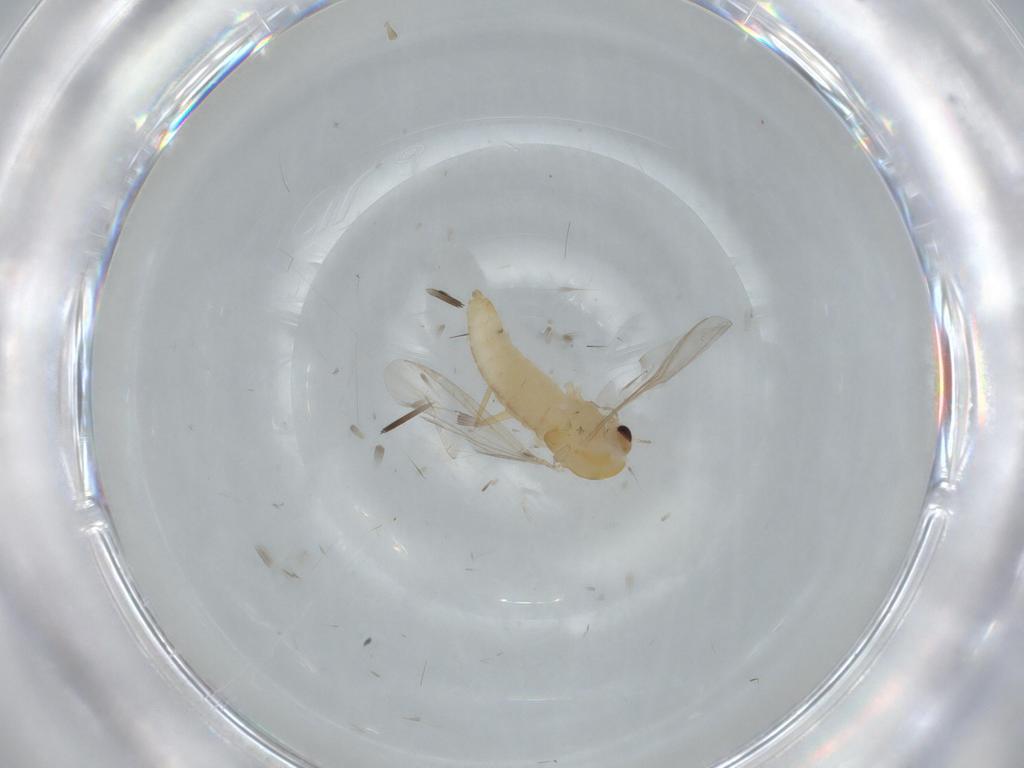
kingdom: Animalia
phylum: Arthropoda
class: Insecta
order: Diptera
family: Chironomidae
